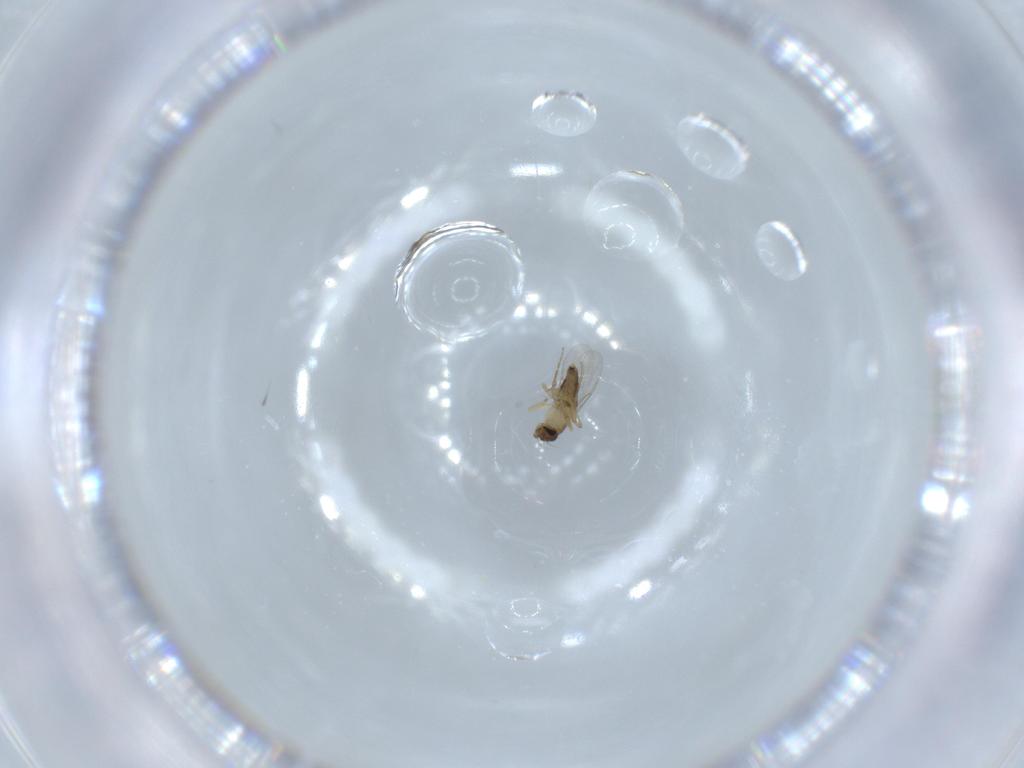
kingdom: Animalia
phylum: Arthropoda
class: Insecta
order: Diptera
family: Phoridae
